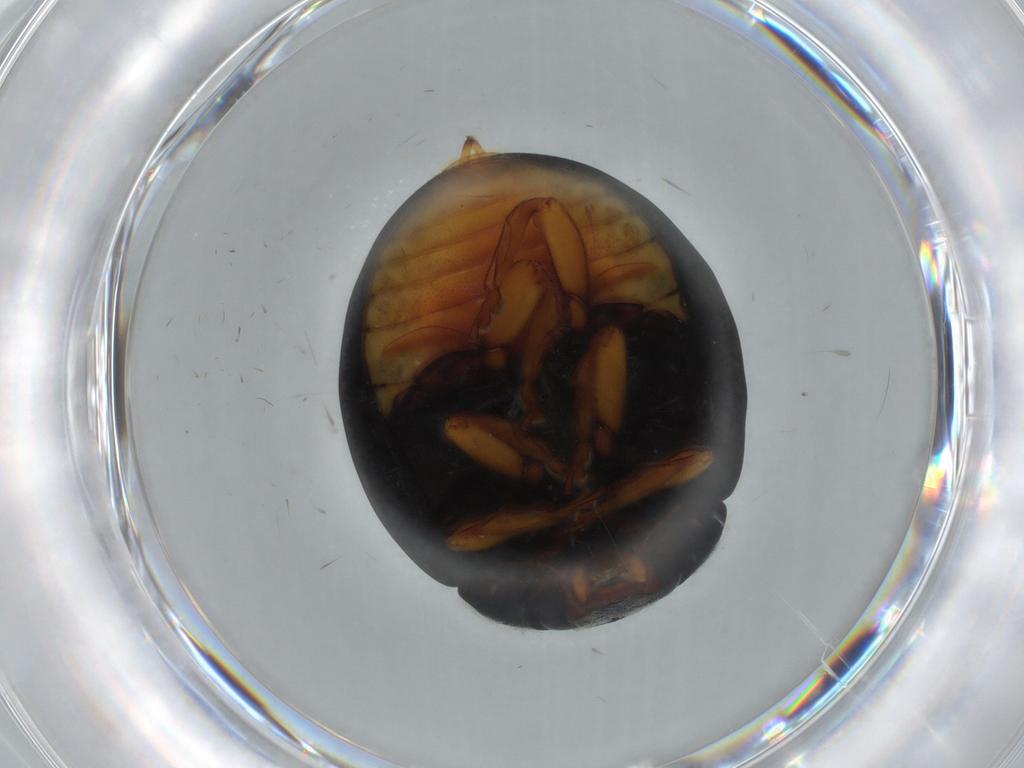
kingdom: Animalia
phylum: Arthropoda
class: Insecta
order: Coleoptera
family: Coccinellidae
